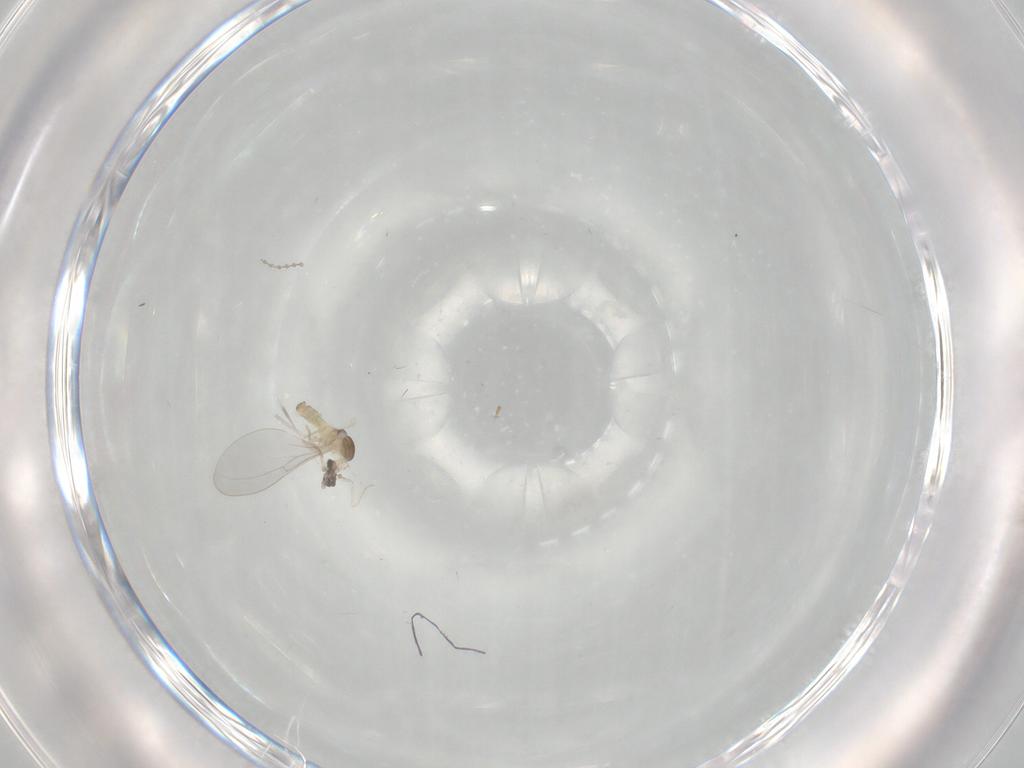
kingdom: Animalia
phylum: Arthropoda
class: Insecta
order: Diptera
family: Cecidomyiidae
